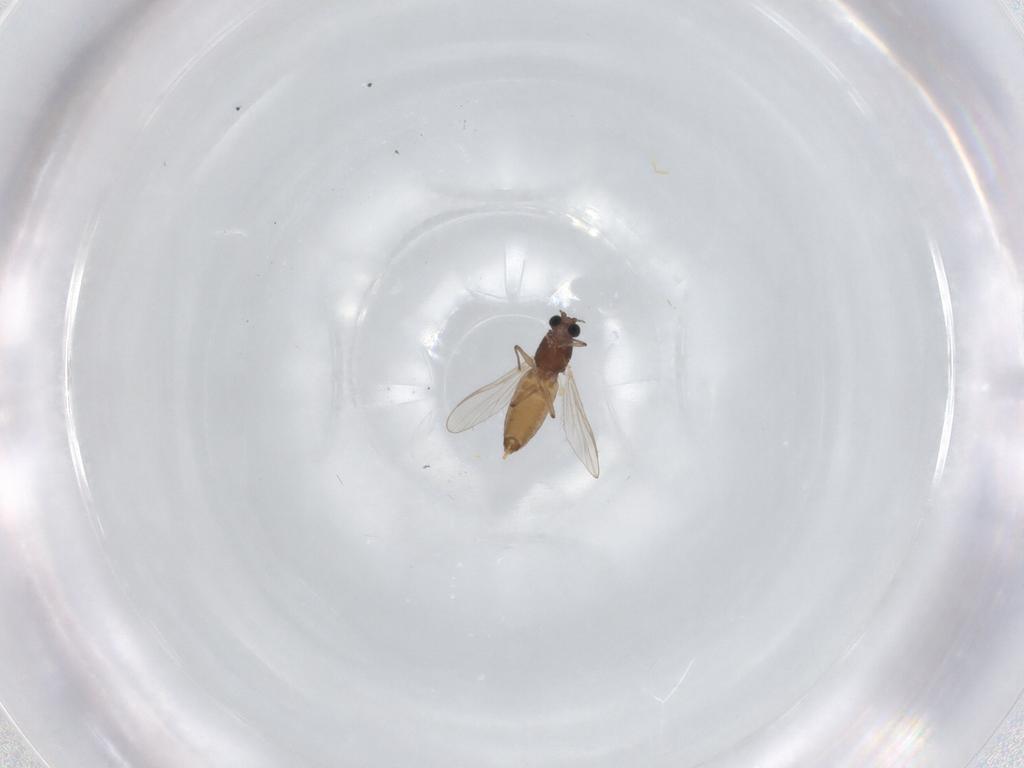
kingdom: Animalia
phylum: Arthropoda
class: Insecta
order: Diptera
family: Chironomidae
